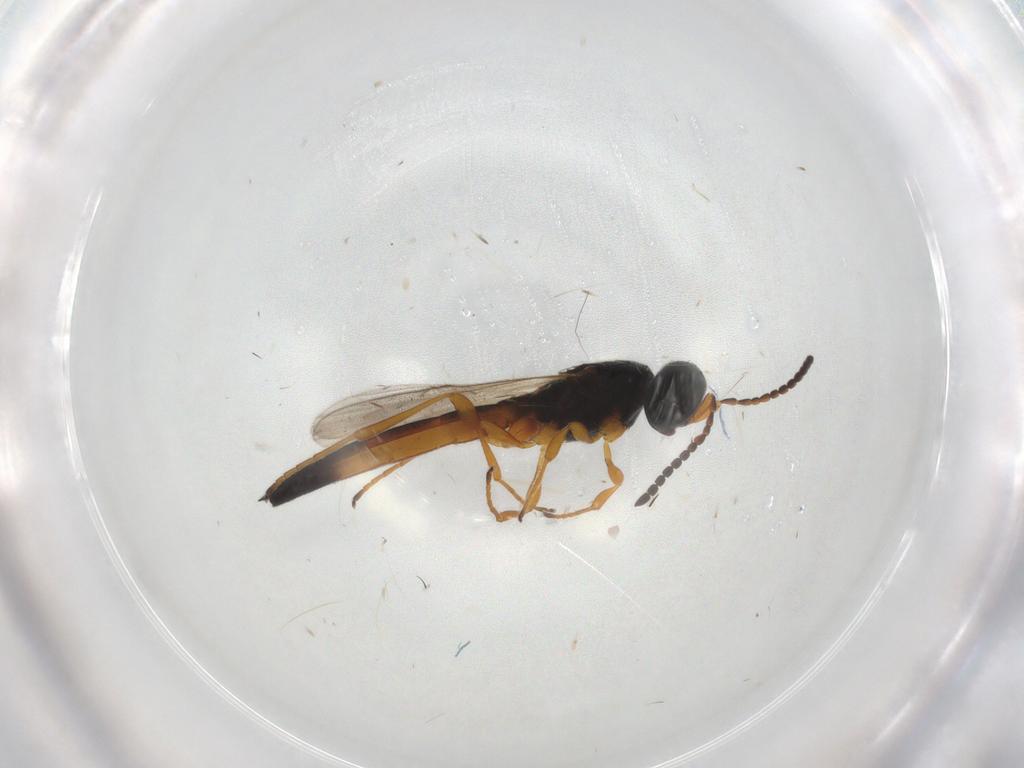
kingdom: Animalia
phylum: Arthropoda
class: Insecta
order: Hymenoptera
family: Scelionidae
